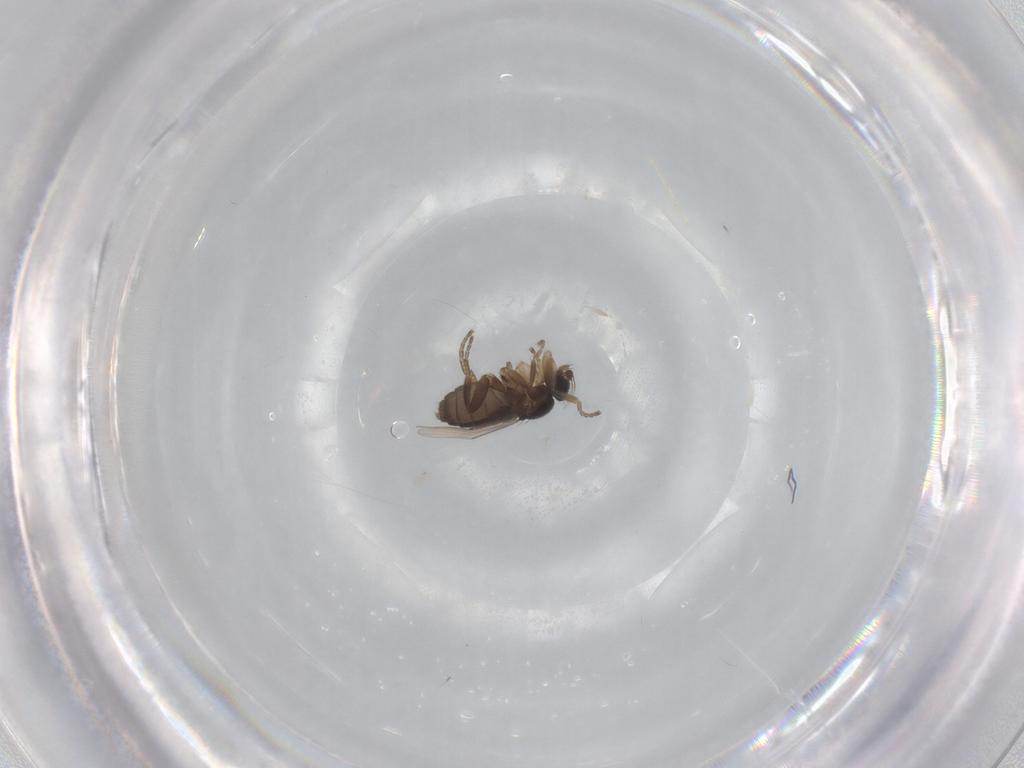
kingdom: Animalia
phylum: Arthropoda
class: Insecta
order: Diptera
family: Phoridae
